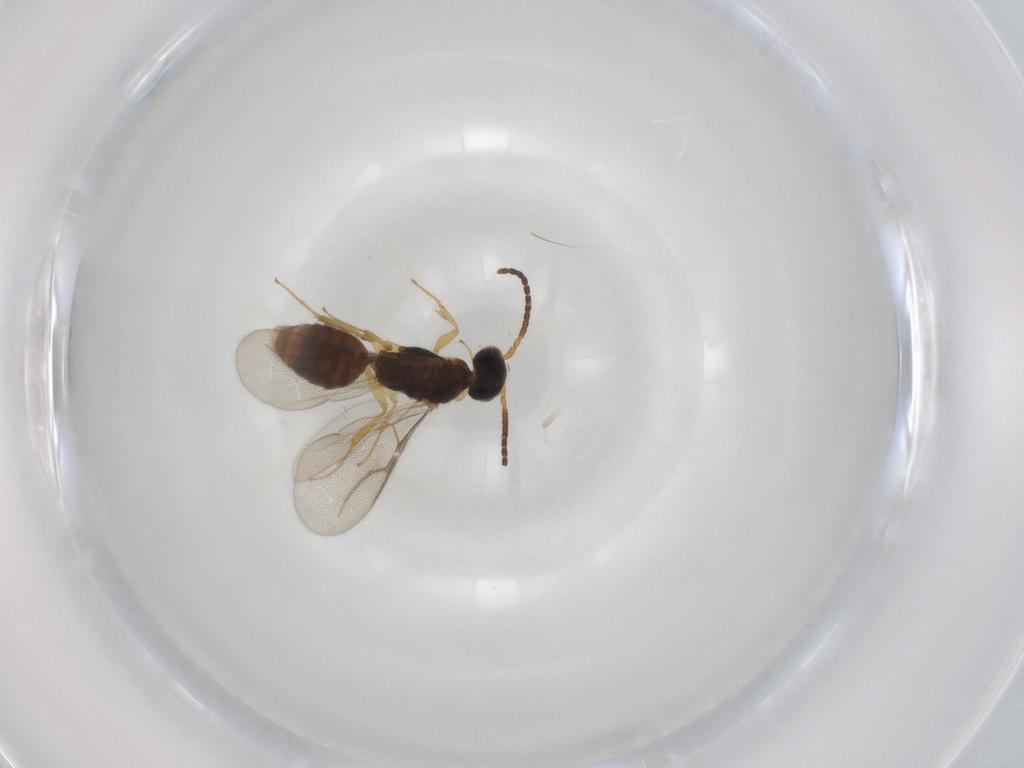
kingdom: Animalia
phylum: Arthropoda
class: Insecta
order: Hymenoptera
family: Bethylidae
